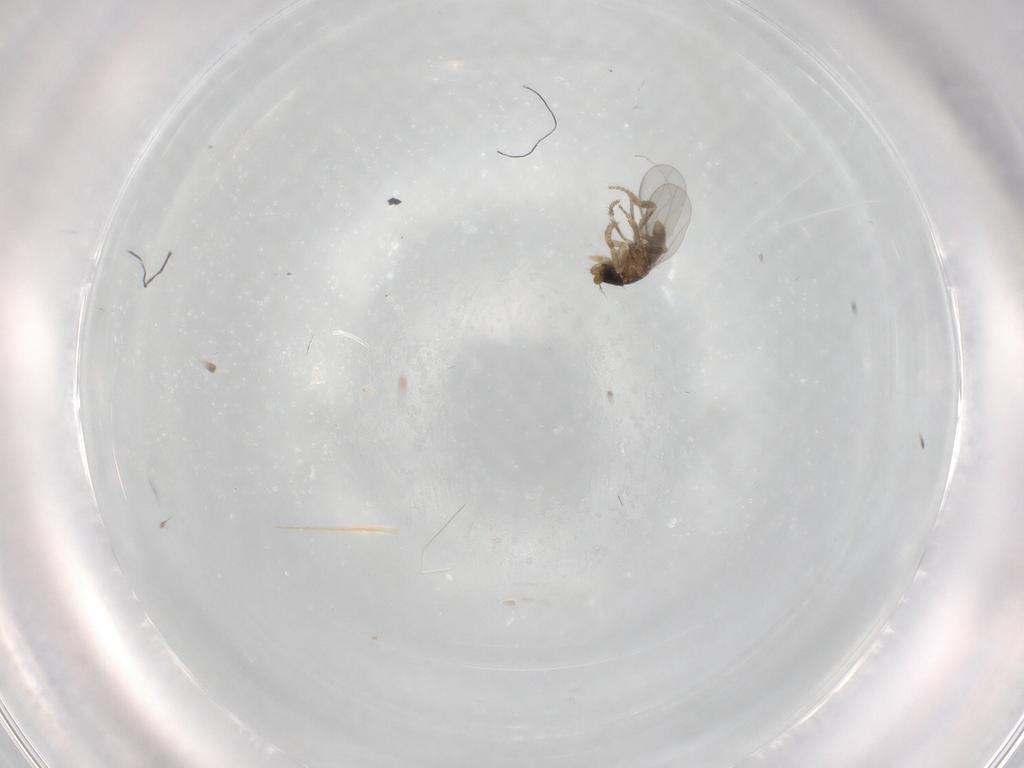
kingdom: Animalia
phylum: Arthropoda
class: Insecta
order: Diptera
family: Phoridae
